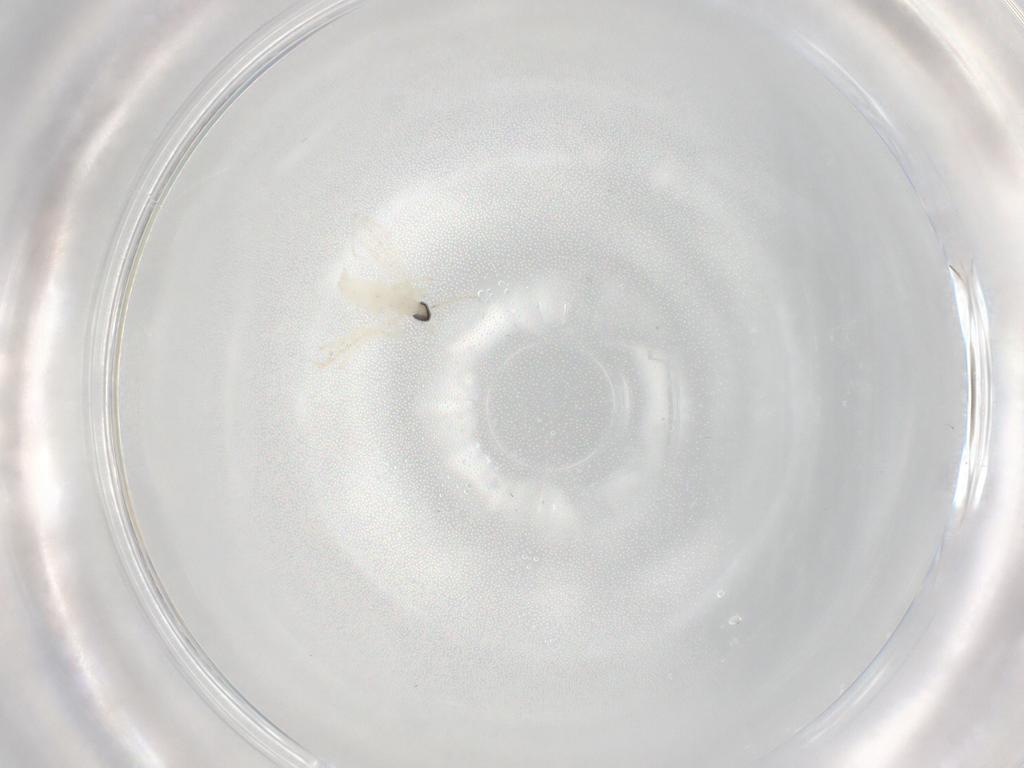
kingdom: Animalia
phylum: Arthropoda
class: Insecta
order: Diptera
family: Cecidomyiidae
